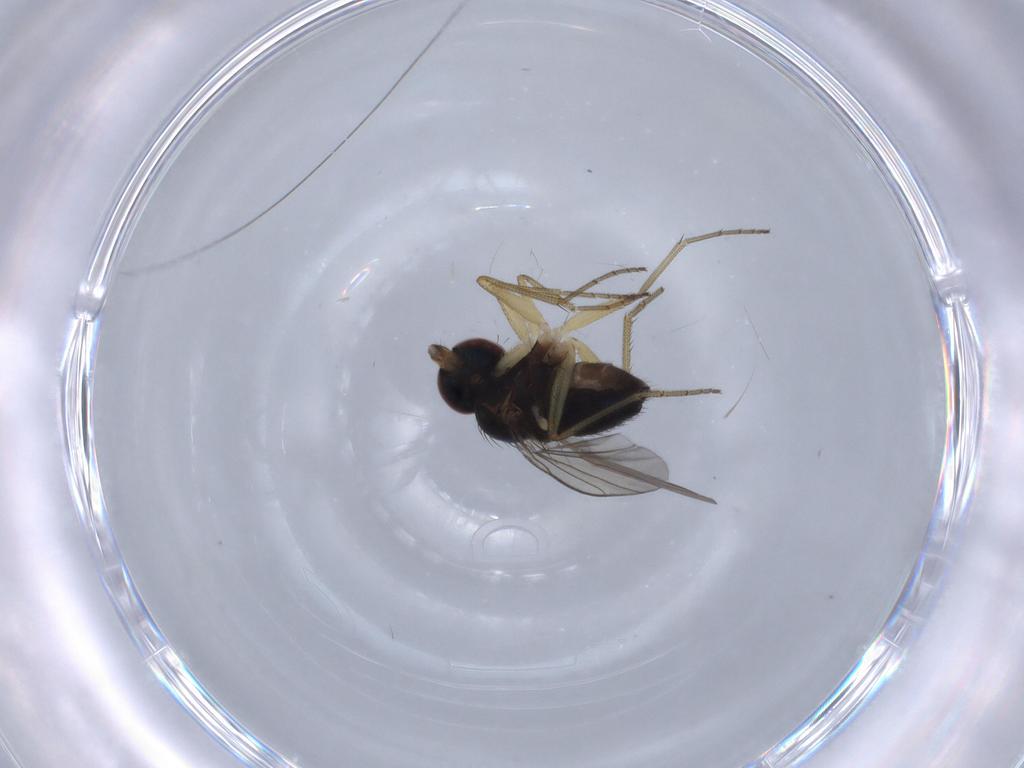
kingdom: Animalia
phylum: Arthropoda
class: Insecta
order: Diptera
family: Dolichopodidae
